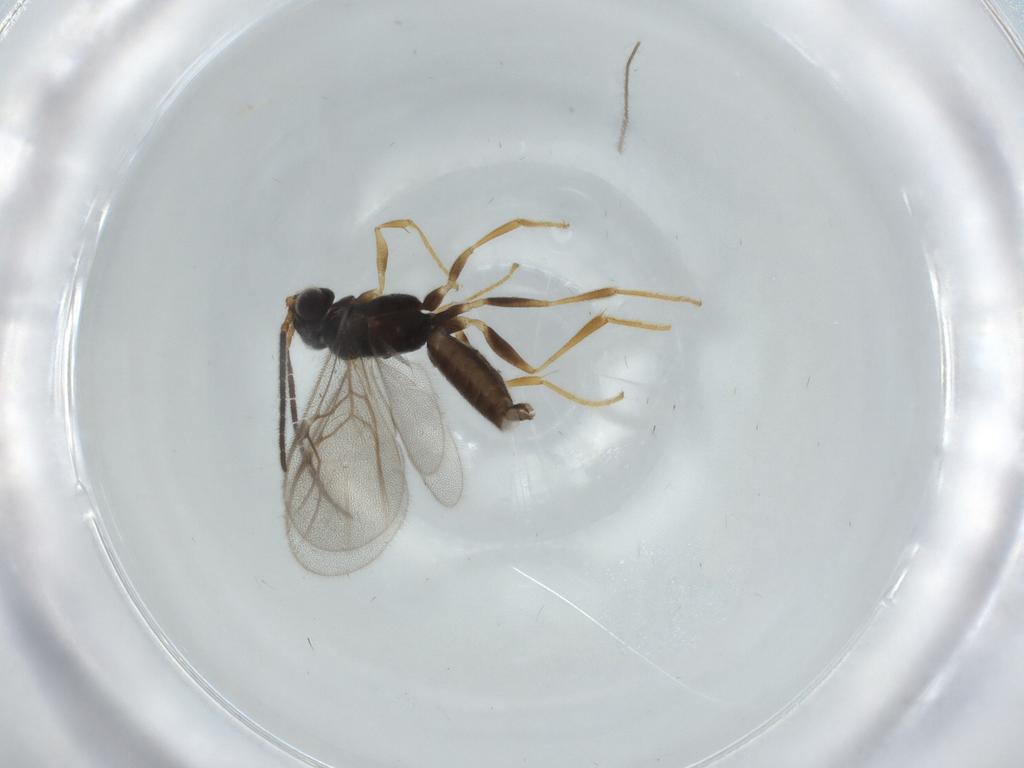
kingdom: Animalia
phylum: Arthropoda
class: Insecta
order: Hymenoptera
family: Dryinidae
